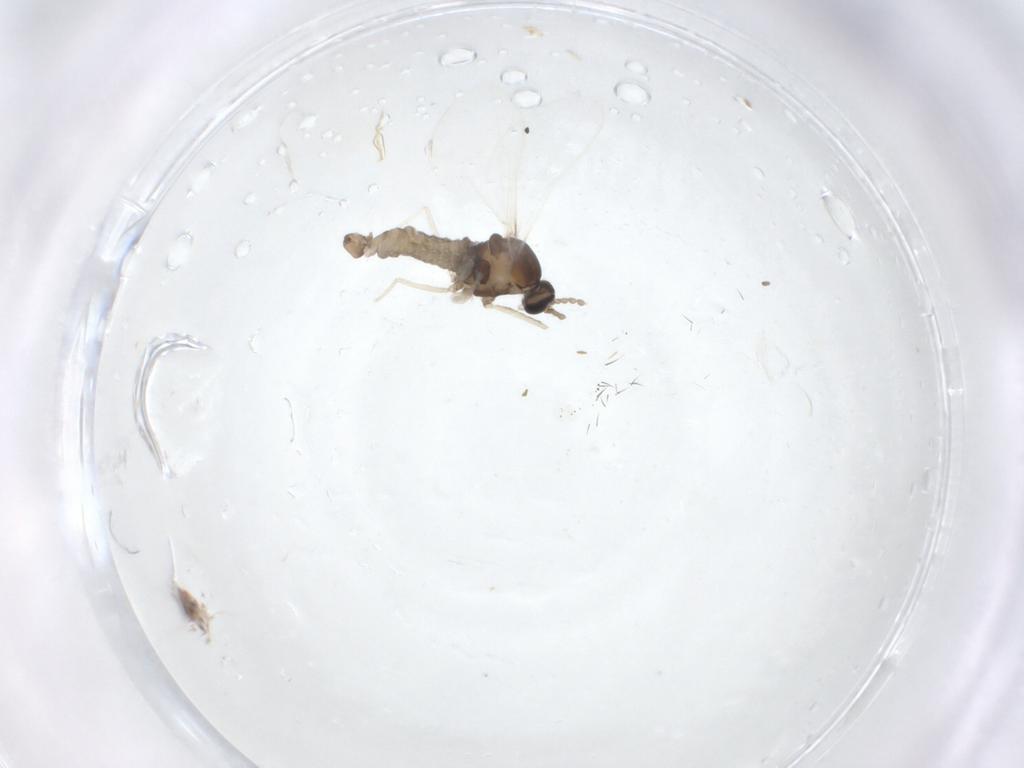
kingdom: Animalia
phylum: Arthropoda
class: Insecta
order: Diptera
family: Cecidomyiidae
